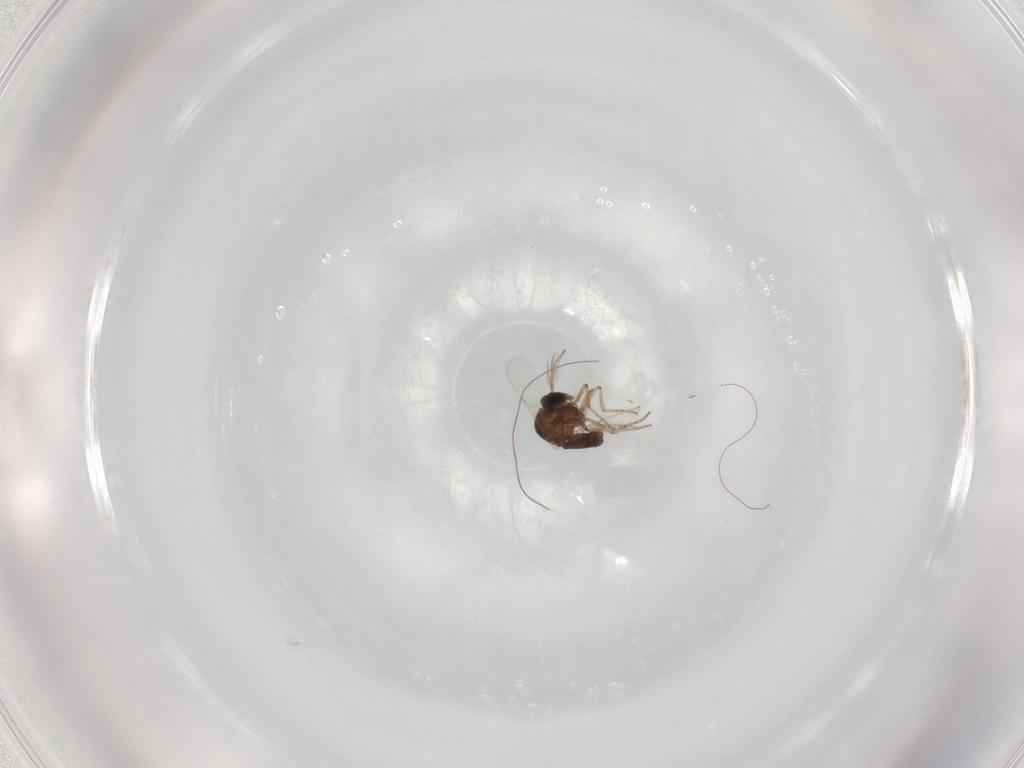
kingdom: Animalia
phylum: Arthropoda
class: Insecta
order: Diptera
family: Ceratopogonidae
